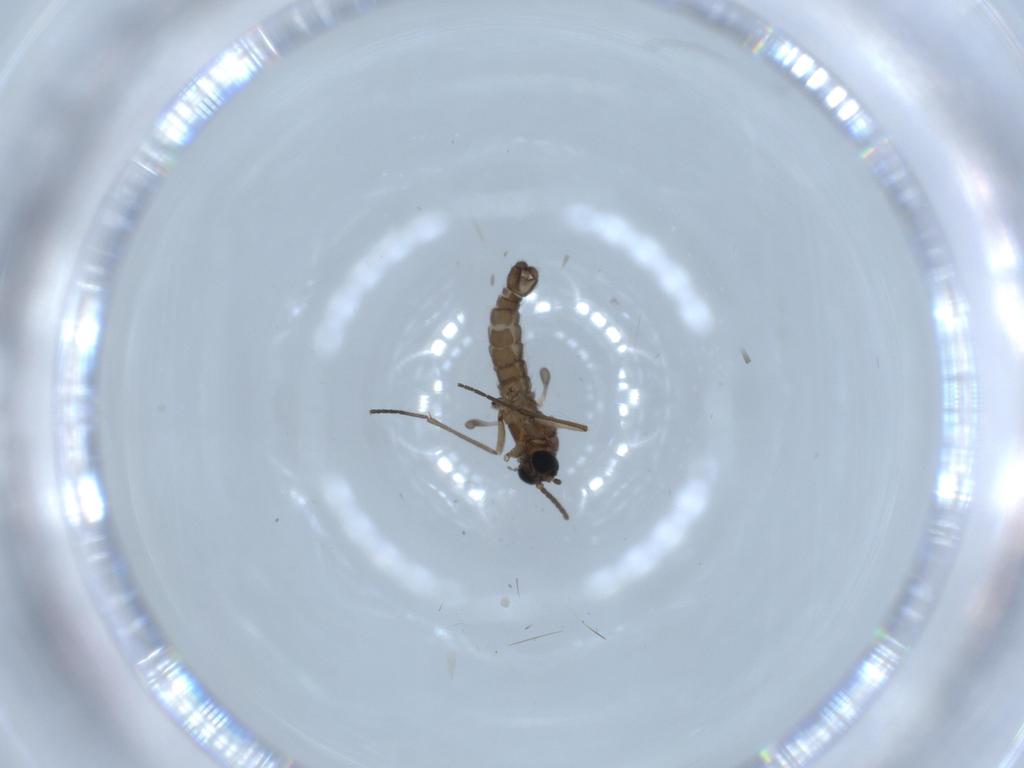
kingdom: Animalia
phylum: Arthropoda
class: Insecta
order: Diptera
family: Sciaridae
